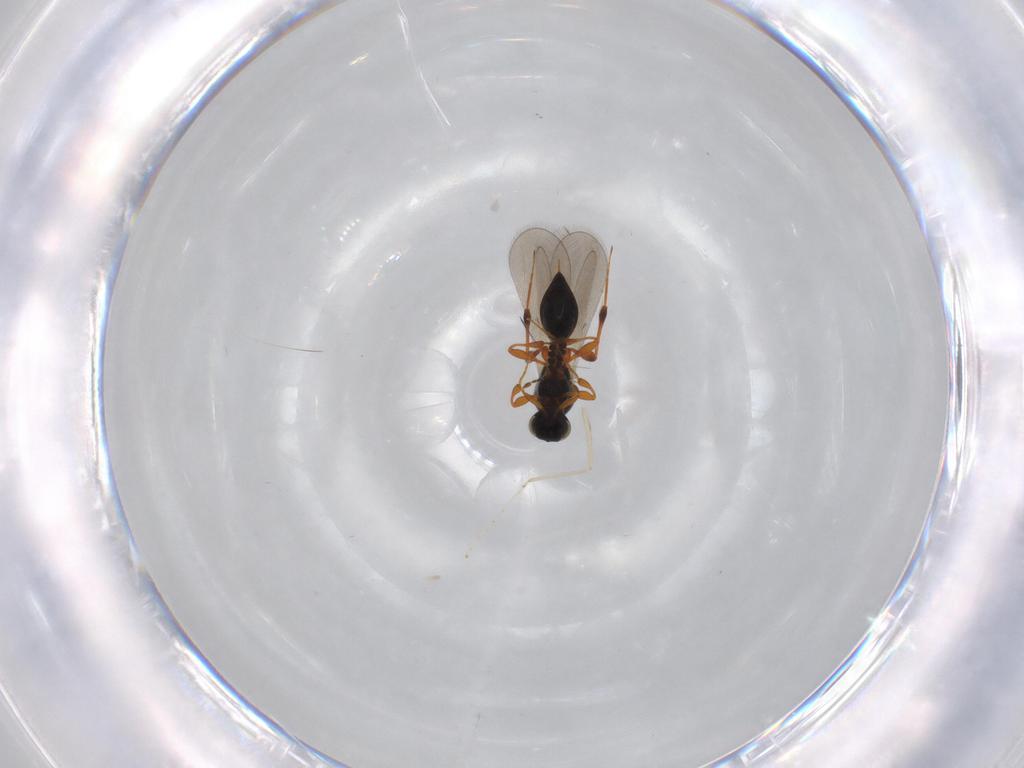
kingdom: Animalia
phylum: Arthropoda
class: Insecta
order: Hymenoptera
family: Platygastridae
